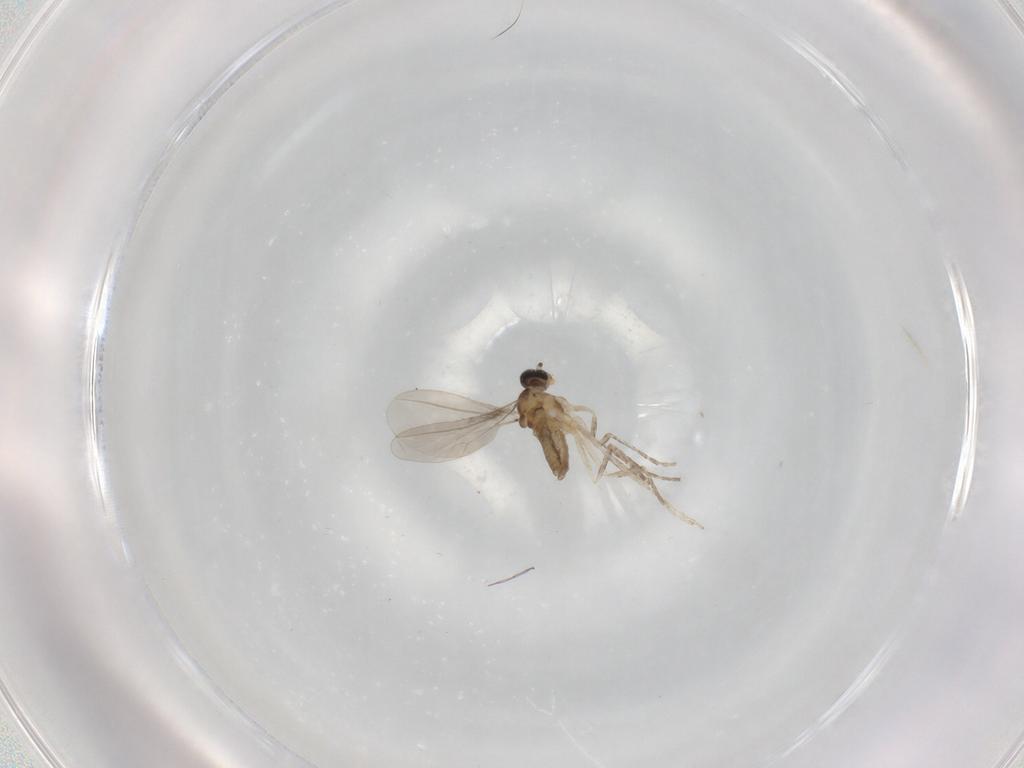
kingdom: Animalia
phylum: Arthropoda
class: Insecta
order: Diptera
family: Cecidomyiidae
